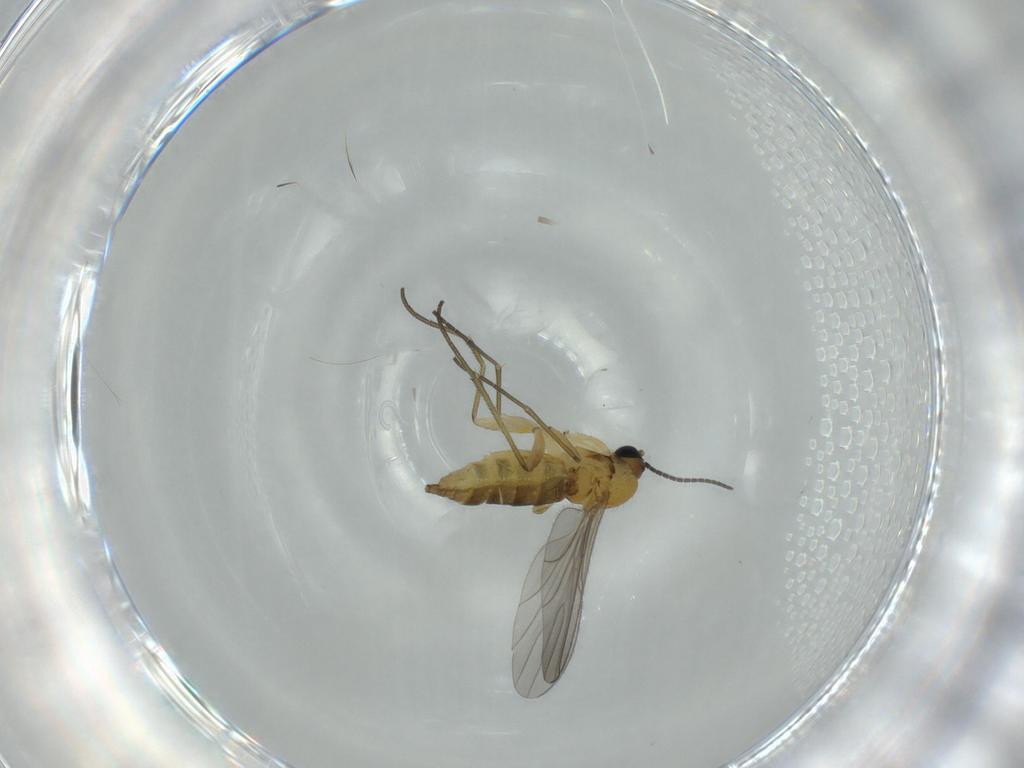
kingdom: Animalia
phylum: Arthropoda
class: Insecta
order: Diptera
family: Sciaridae
